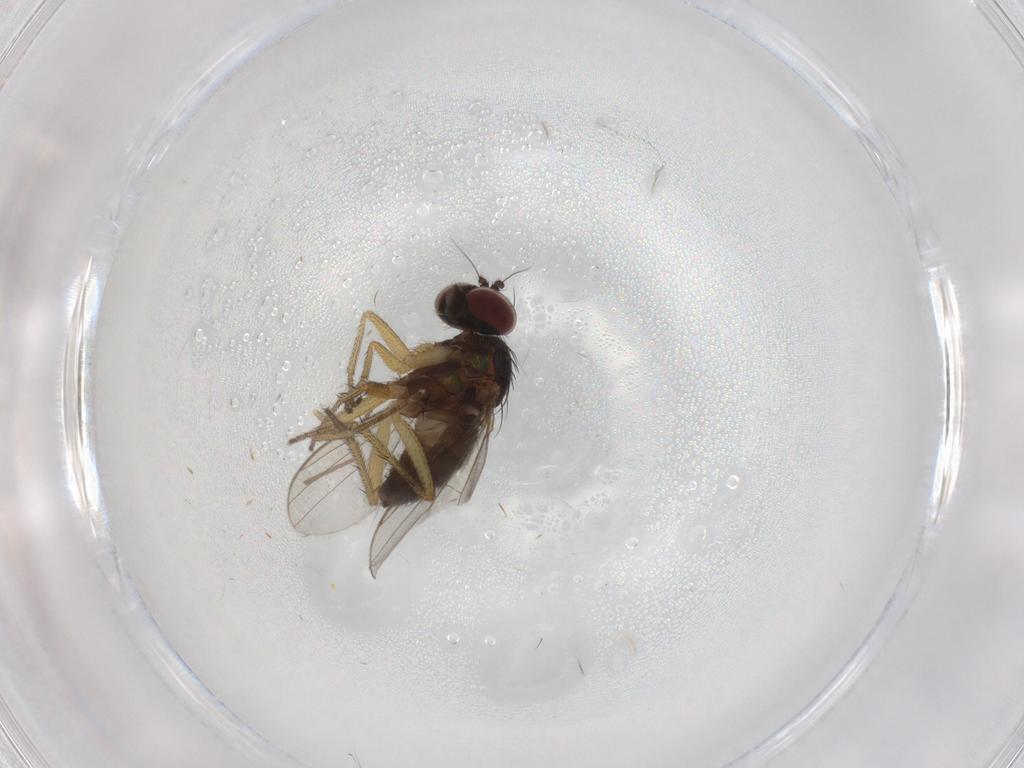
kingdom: Animalia
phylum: Arthropoda
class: Insecta
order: Diptera
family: Dolichopodidae
